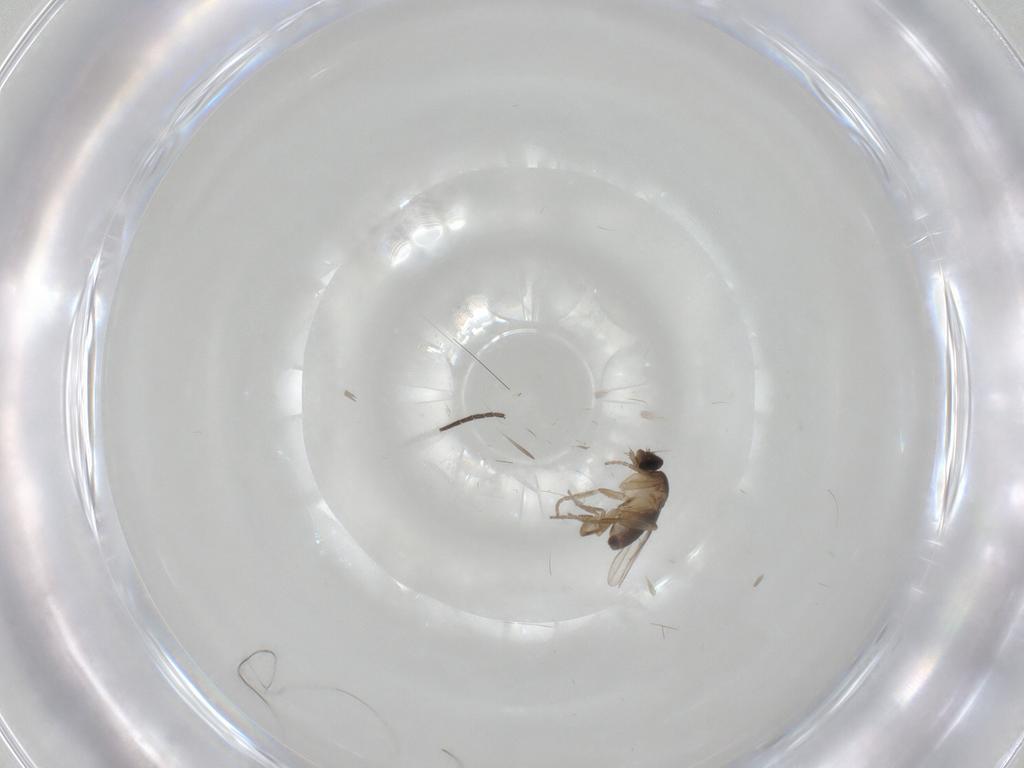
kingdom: Animalia
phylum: Arthropoda
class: Insecta
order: Diptera
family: Phoridae
